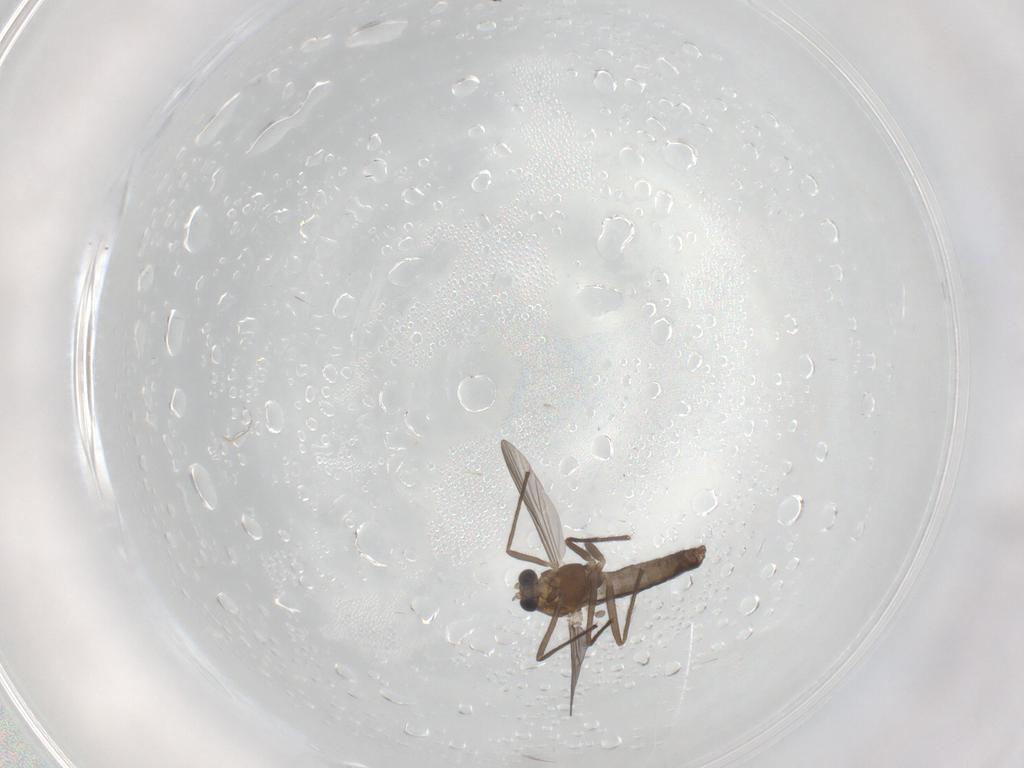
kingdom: Animalia
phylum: Arthropoda
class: Insecta
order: Diptera
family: Chironomidae
